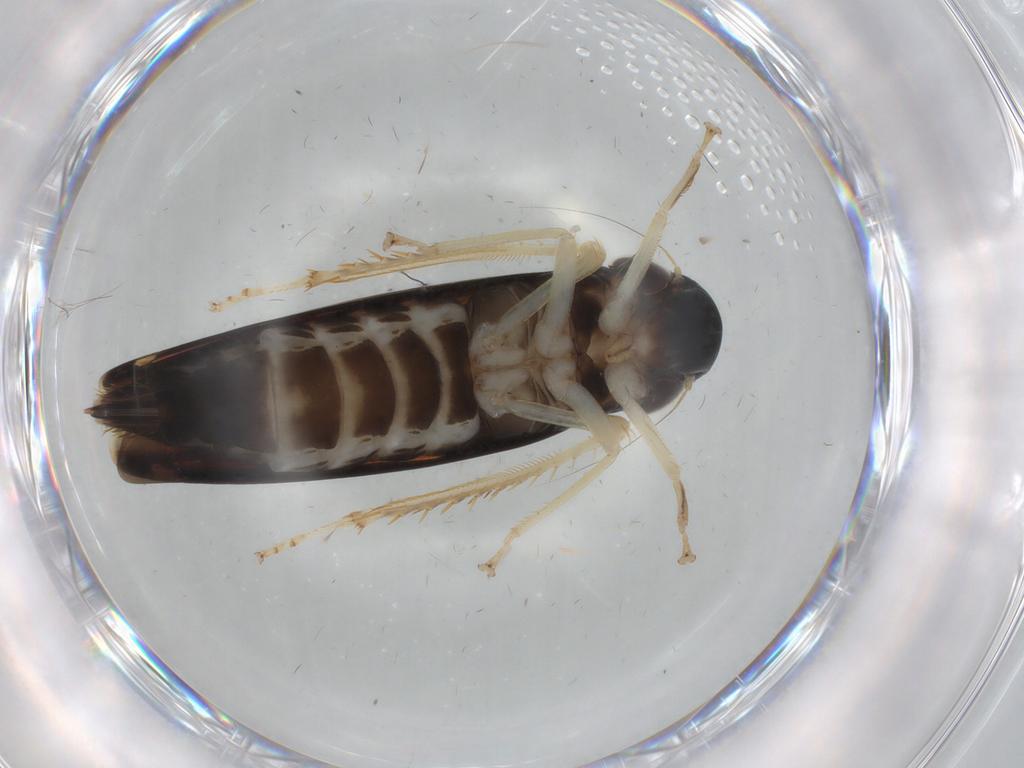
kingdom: Animalia
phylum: Arthropoda
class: Insecta
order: Hemiptera
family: Cicadellidae
